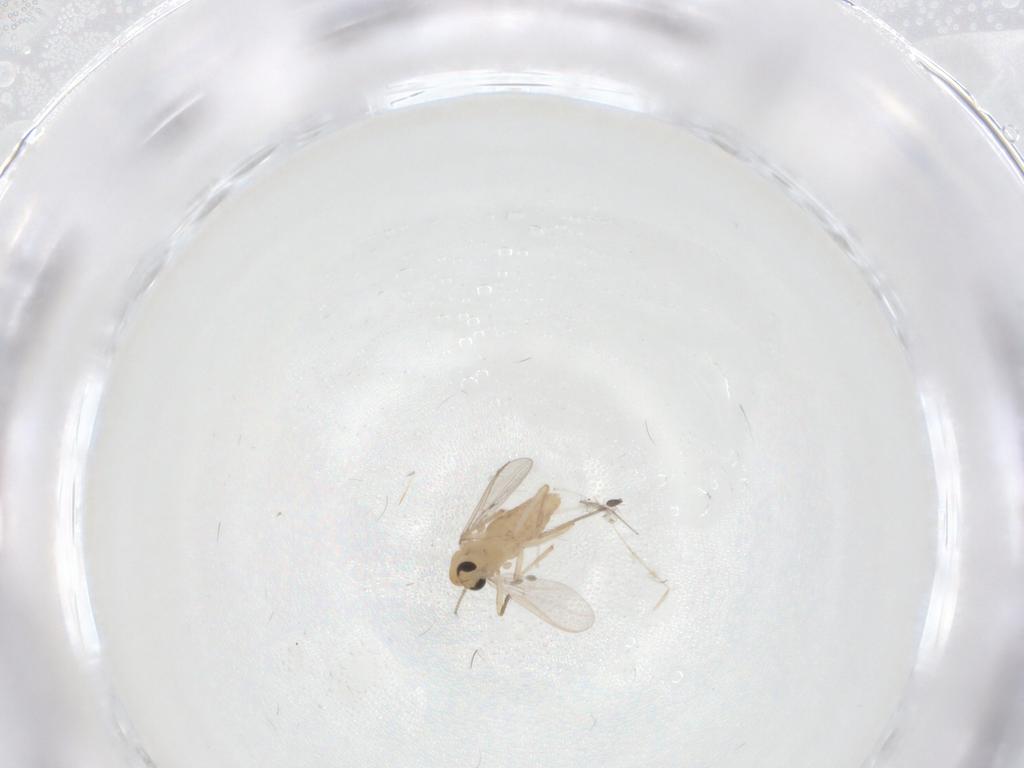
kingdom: Animalia
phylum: Arthropoda
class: Insecta
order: Diptera
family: Chironomidae
